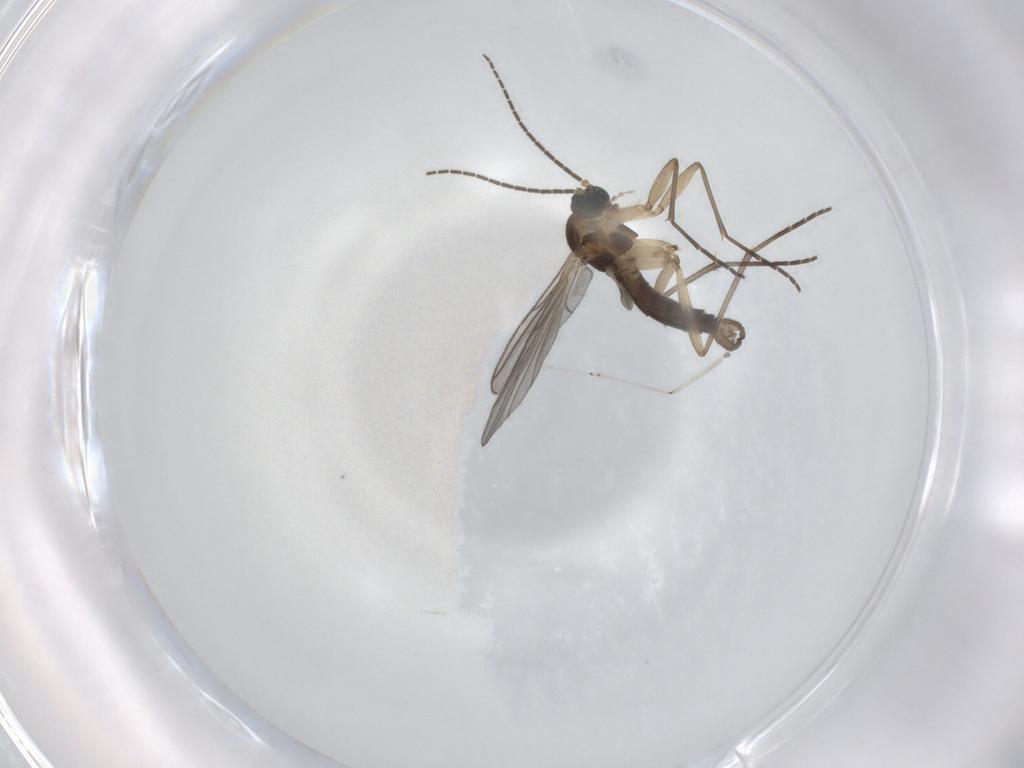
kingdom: Animalia
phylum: Arthropoda
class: Insecta
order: Diptera
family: Sciaridae
